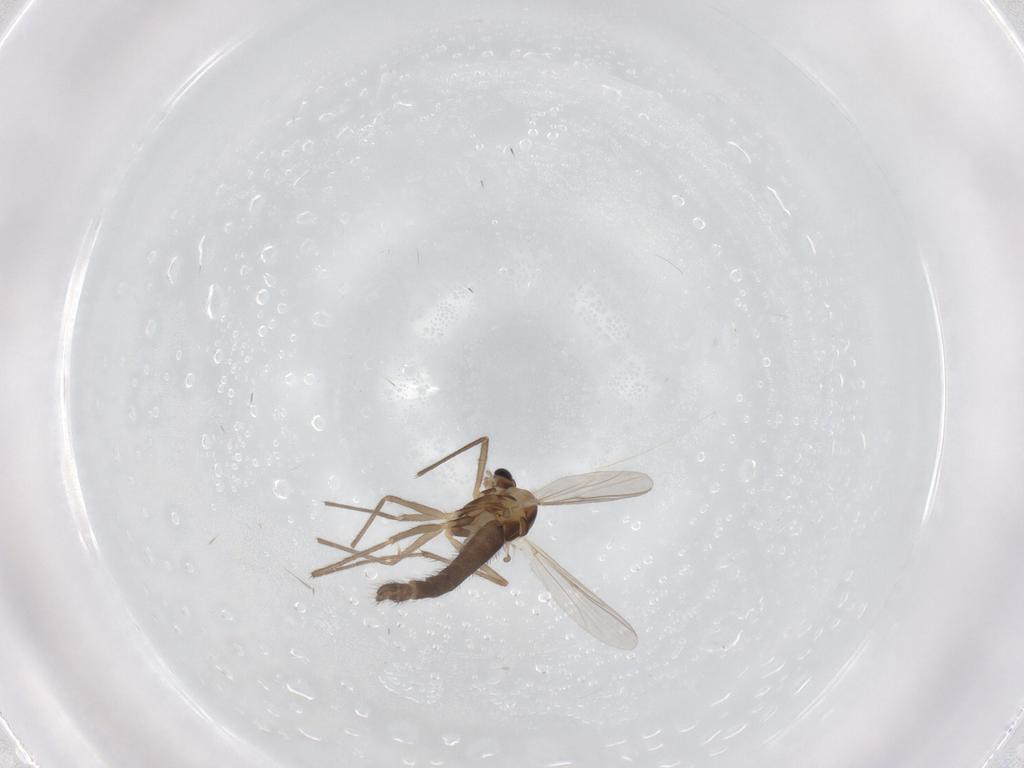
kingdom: Animalia
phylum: Arthropoda
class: Insecta
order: Diptera
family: Chironomidae
